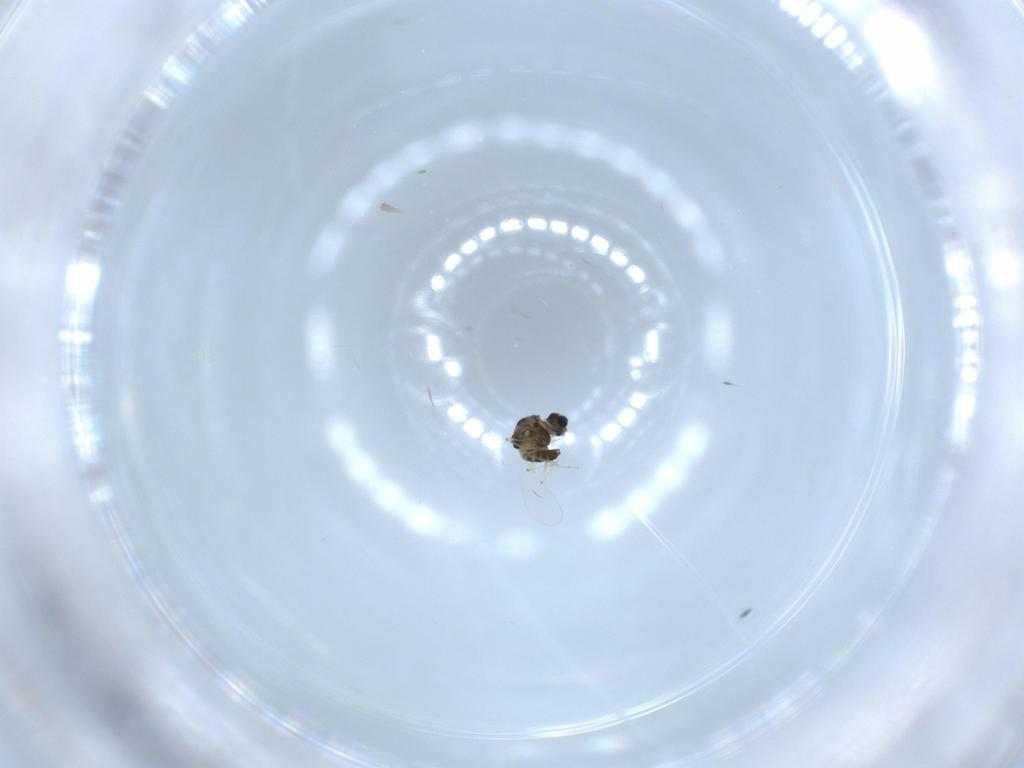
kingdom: Animalia
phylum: Arthropoda
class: Insecta
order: Diptera
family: Chironomidae
